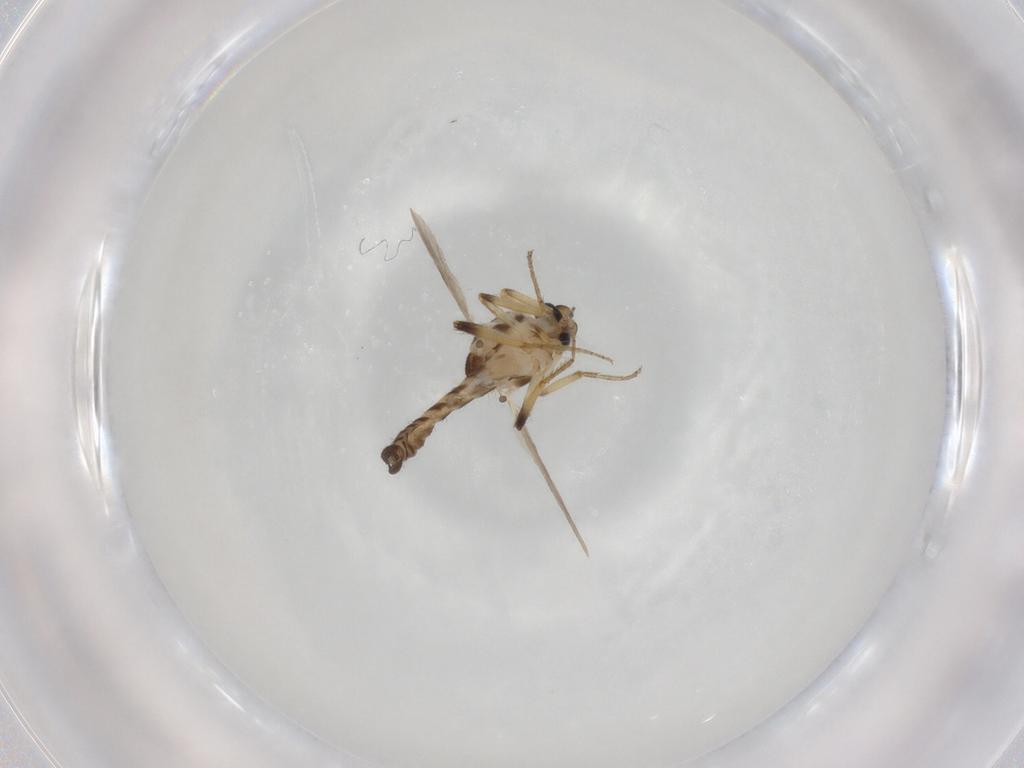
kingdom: Animalia
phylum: Arthropoda
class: Insecta
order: Diptera
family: Ceratopogonidae
